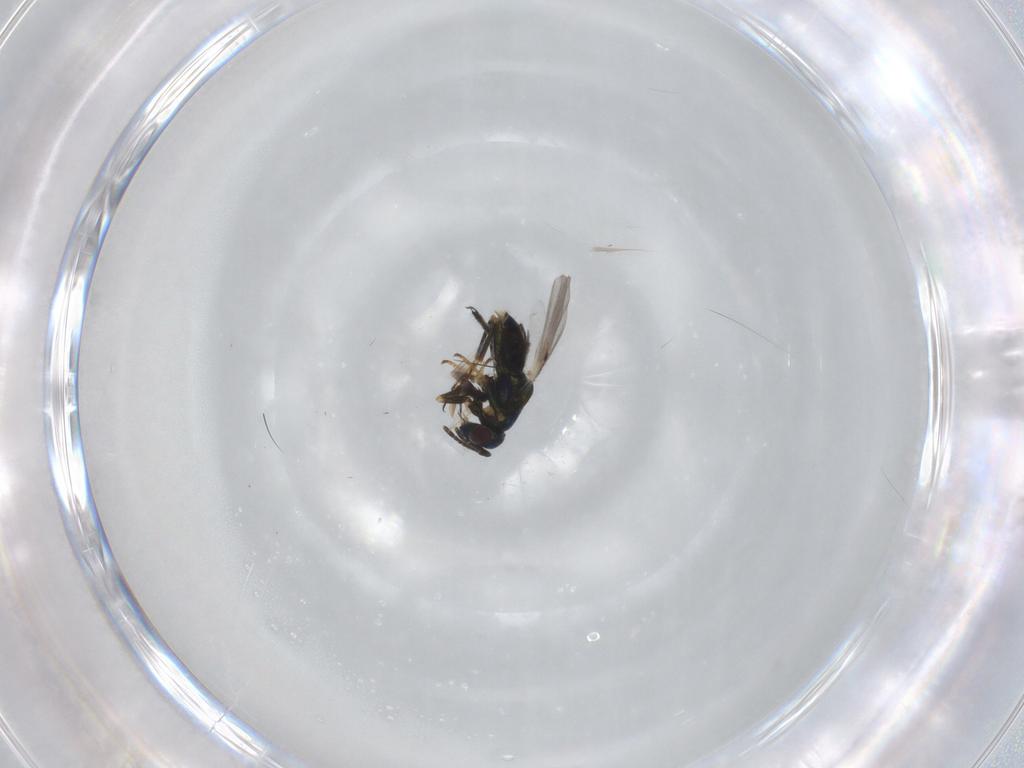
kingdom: Animalia
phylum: Arthropoda
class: Insecta
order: Hymenoptera
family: Encyrtidae
